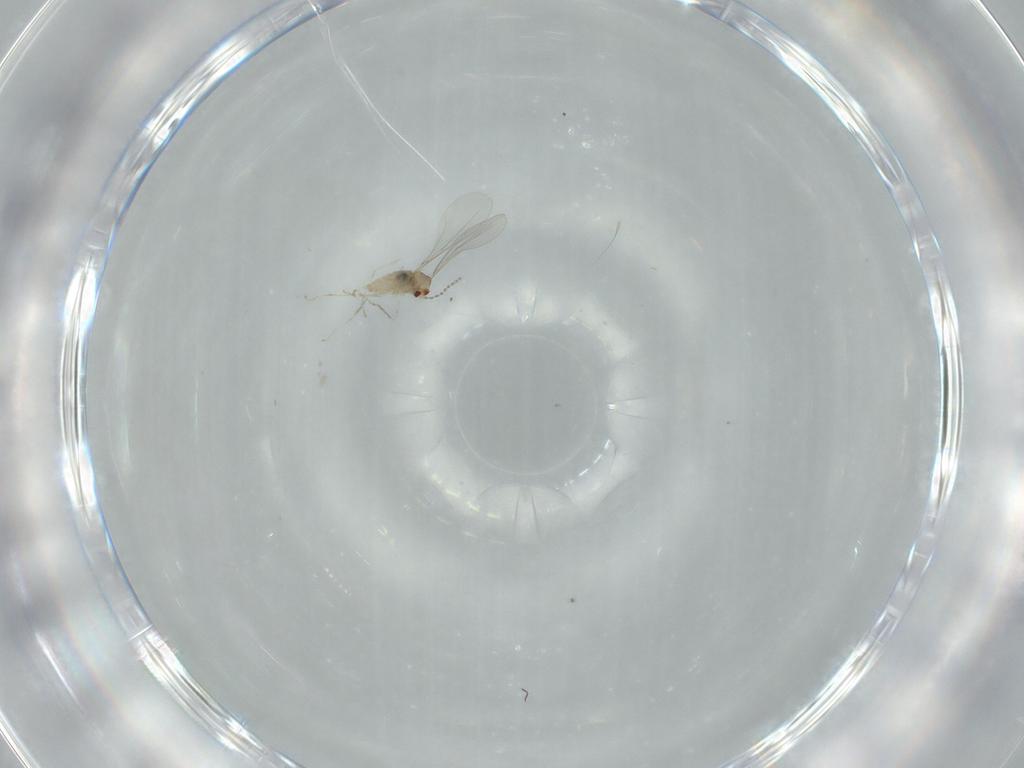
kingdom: Animalia
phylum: Arthropoda
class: Insecta
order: Diptera
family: Cecidomyiidae
